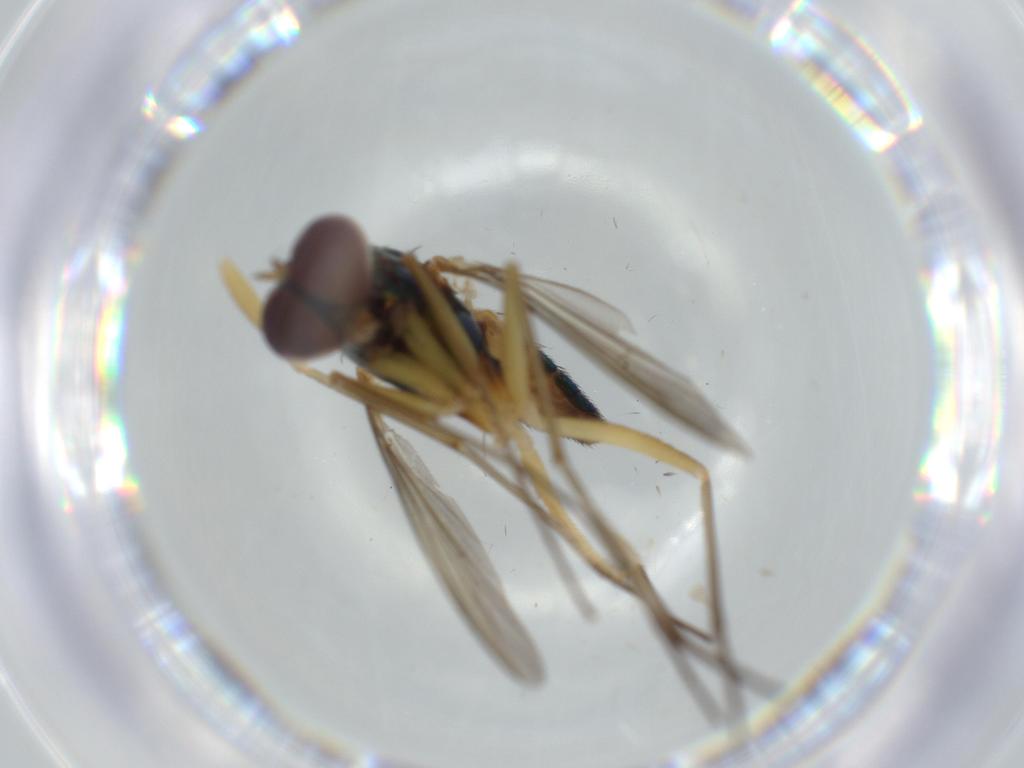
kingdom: Animalia
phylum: Arthropoda
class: Insecta
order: Diptera
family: Dolichopodidae
